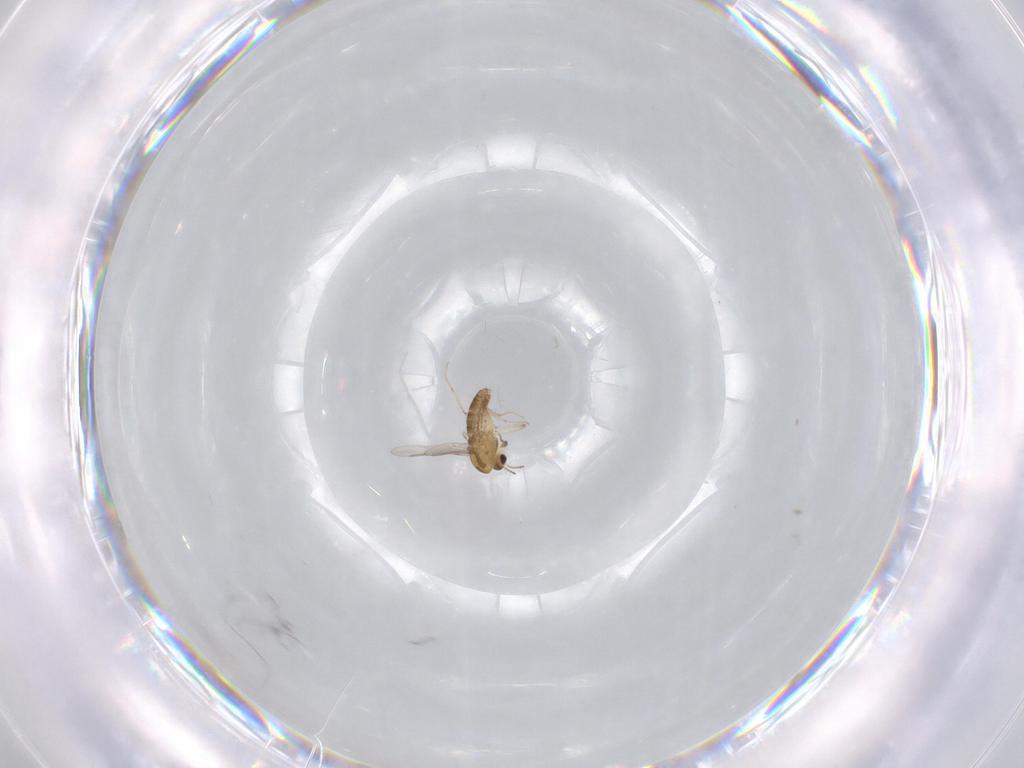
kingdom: Animalia
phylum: Arthropoda
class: Insecta
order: Diptera
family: Chironomidae
